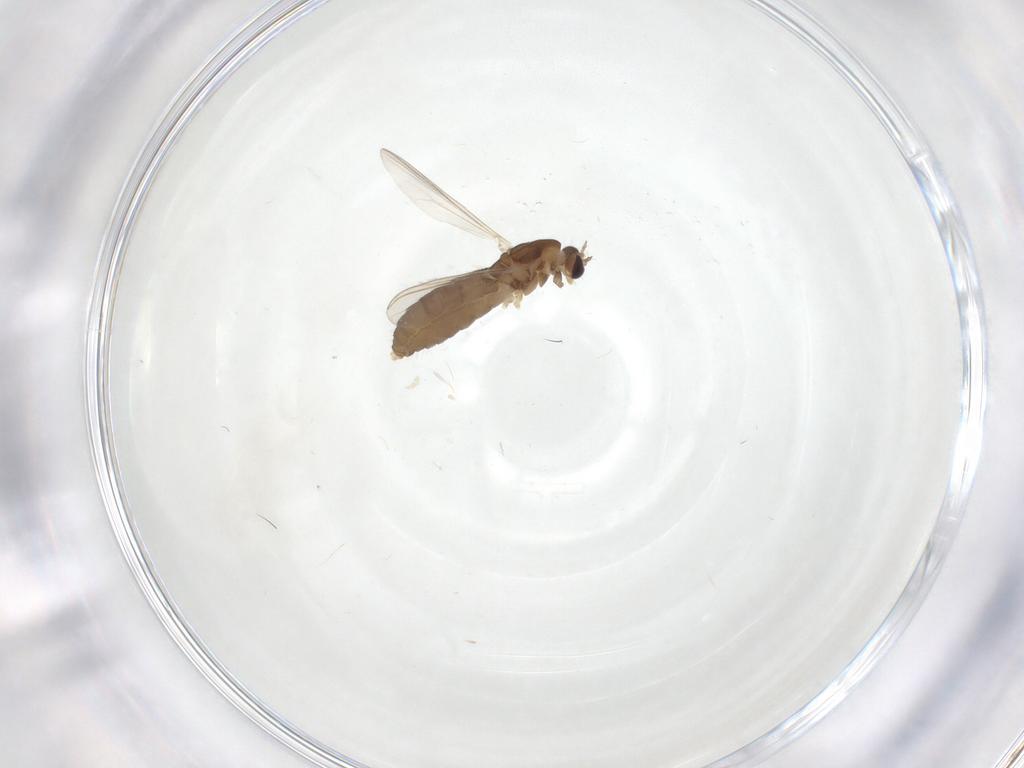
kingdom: Animalia
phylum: Arthropoda
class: Insecta
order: Diptera
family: Chironomidae
